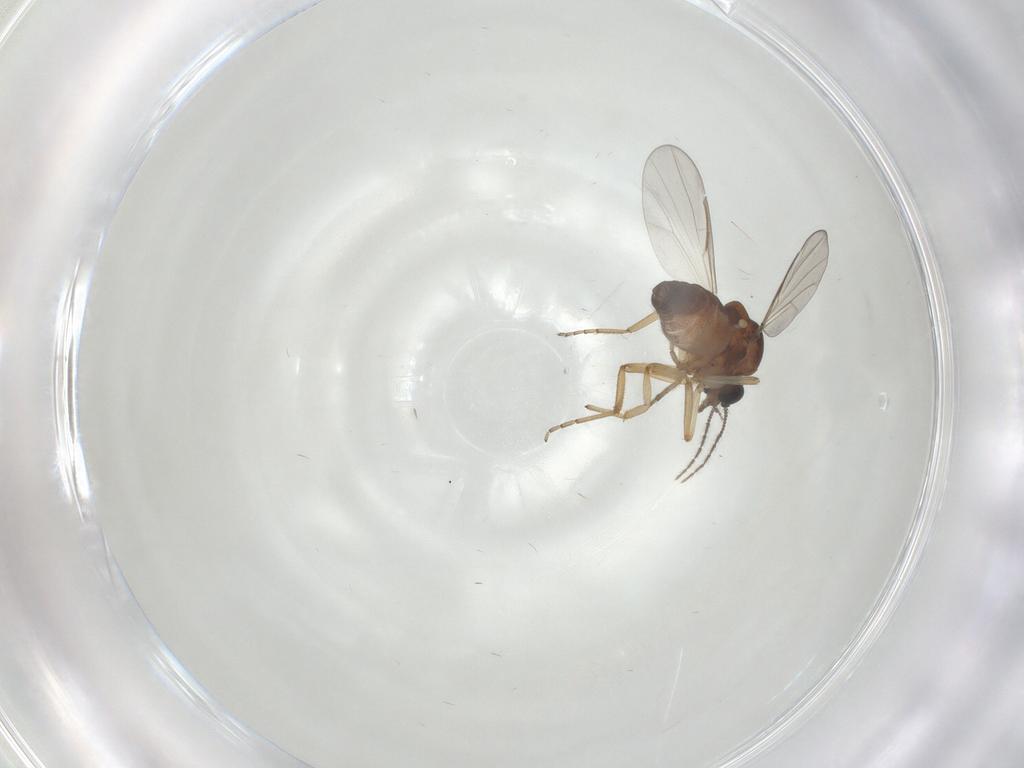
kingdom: Animalia
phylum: Arthropoda
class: Insecta
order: Diptera
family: Ceratopogonidae
